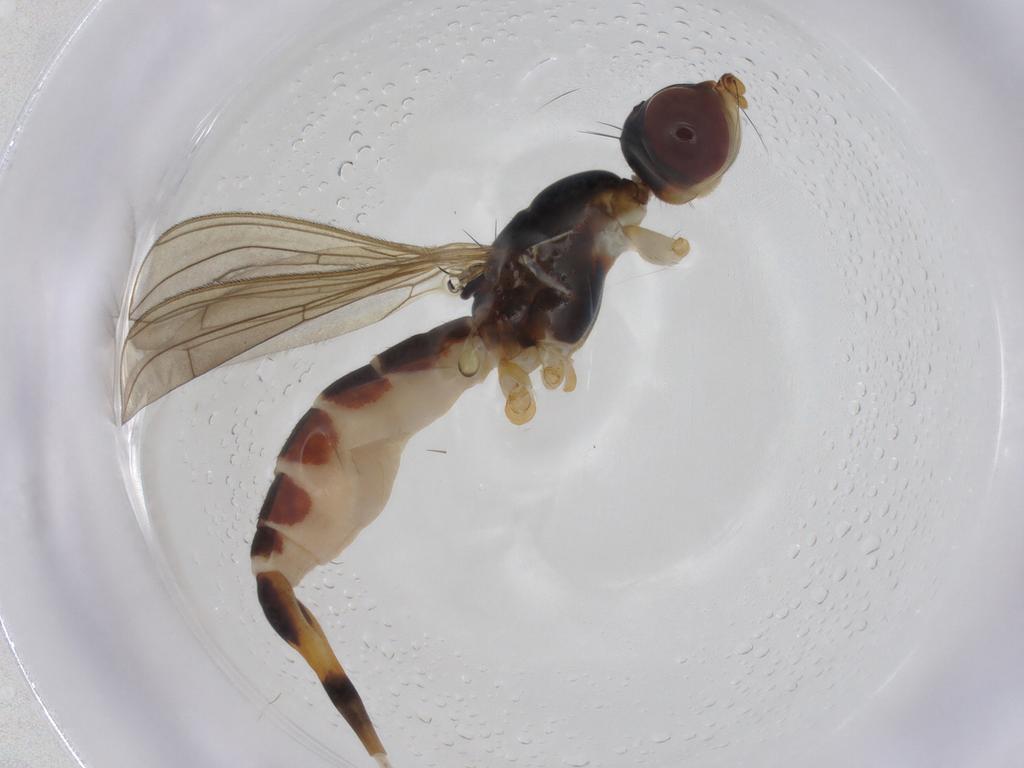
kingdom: Animalia
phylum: Arthropoda
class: Insecta
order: Diptera
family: Micropezidae
